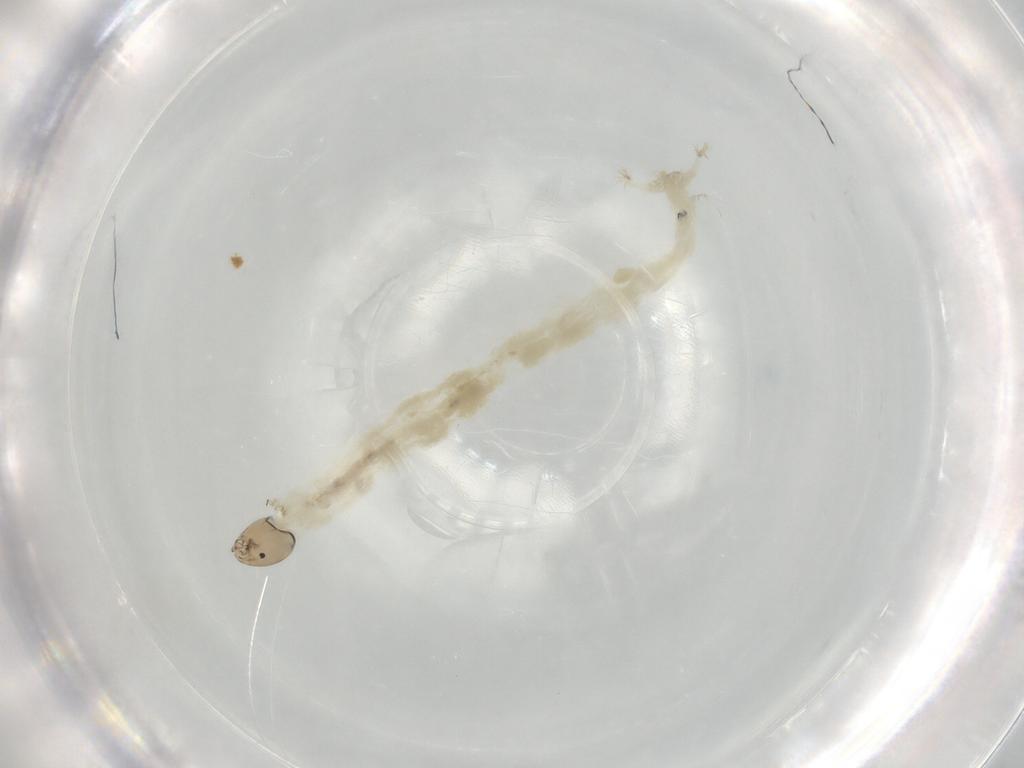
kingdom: Animalia
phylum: Arthropoda
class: Insecta
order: Diptera
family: Chironomidae
